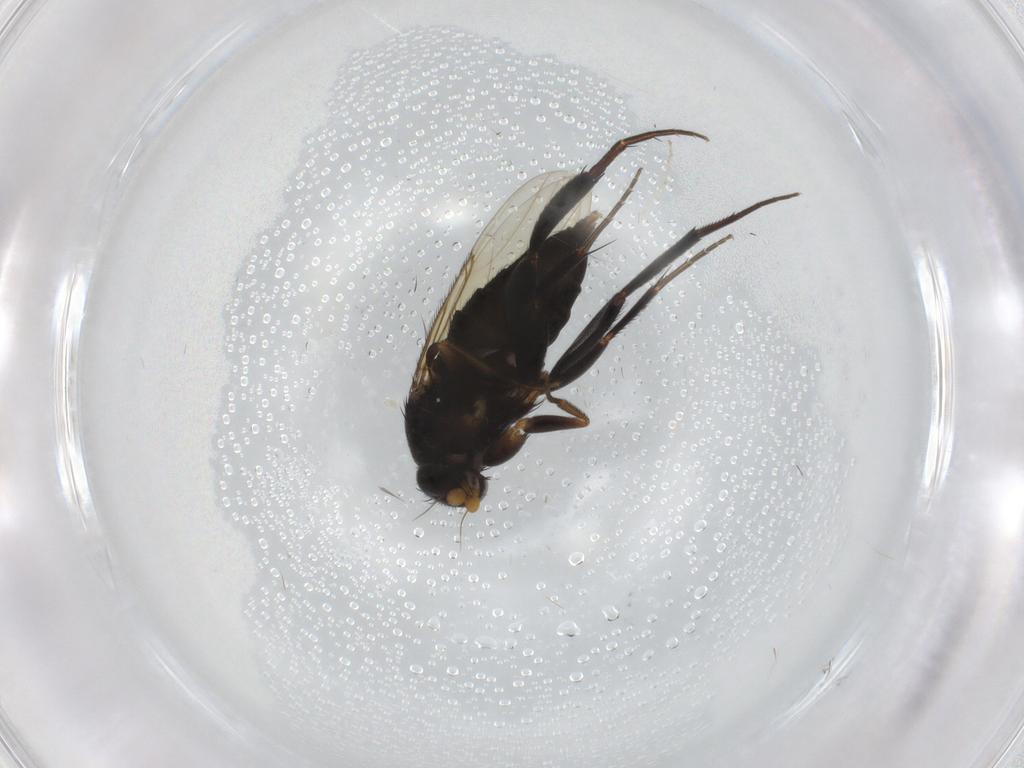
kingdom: Animalia
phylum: Arthropoda
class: Insecta
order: Diptera
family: Phoridae
